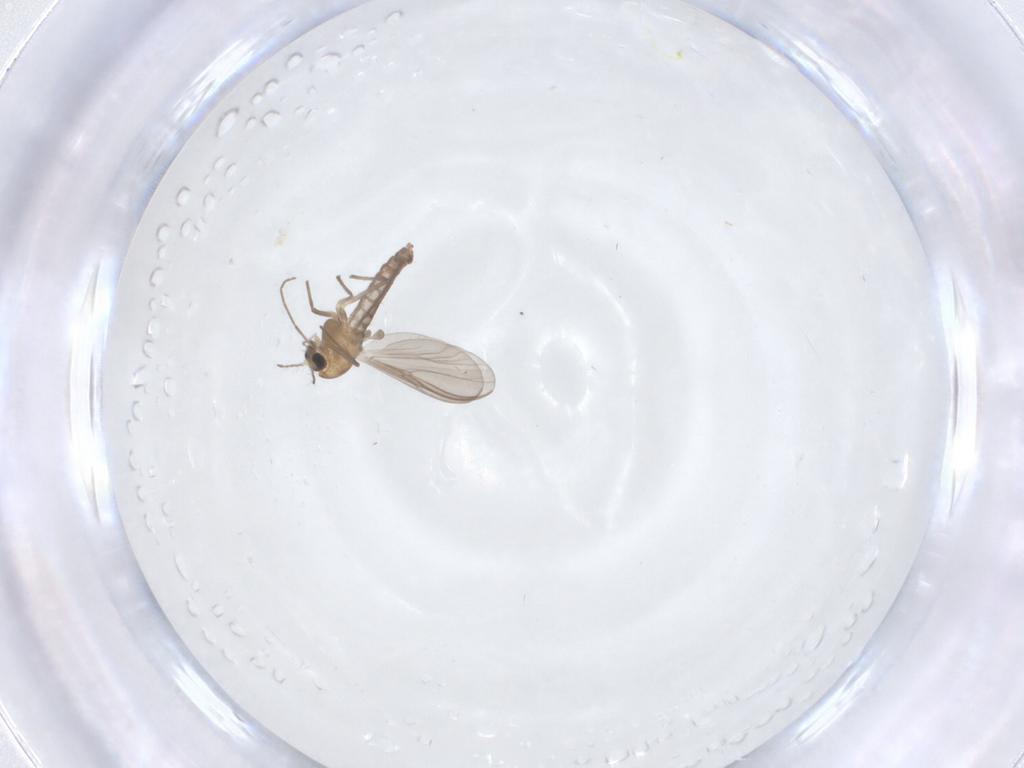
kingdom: Animalia
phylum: Arthropoda
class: Insecta
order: Diptera
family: Chironomidae
